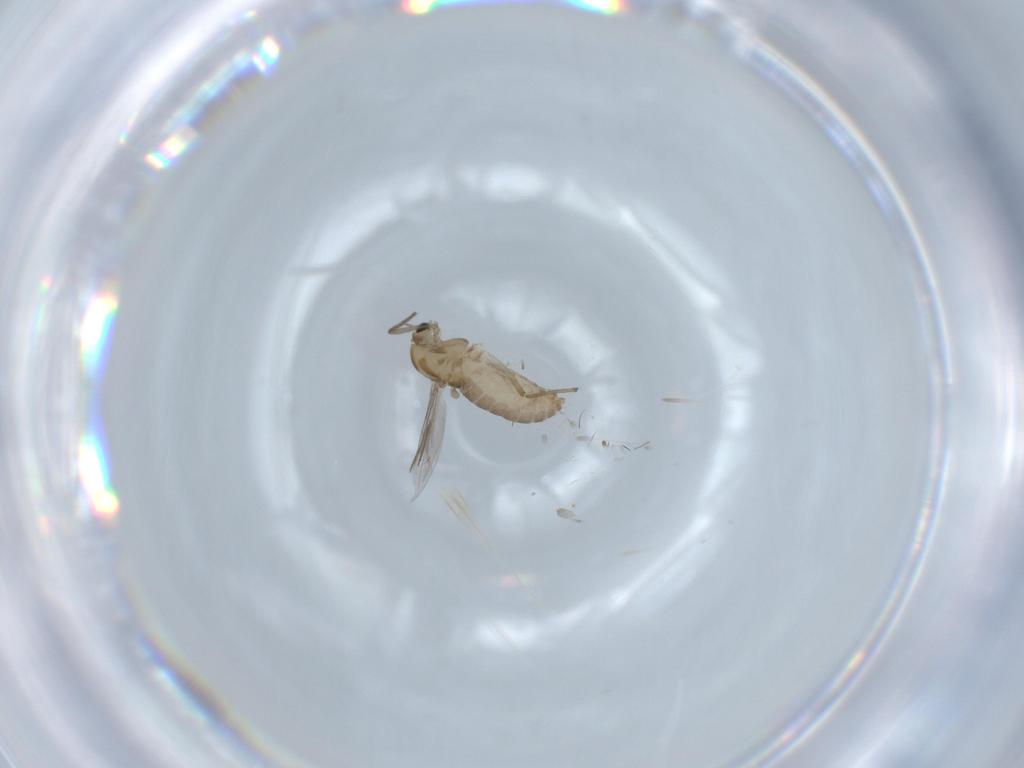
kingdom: Animalia
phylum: Arthropoda
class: Insecta
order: Diptera
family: Chironomidae
